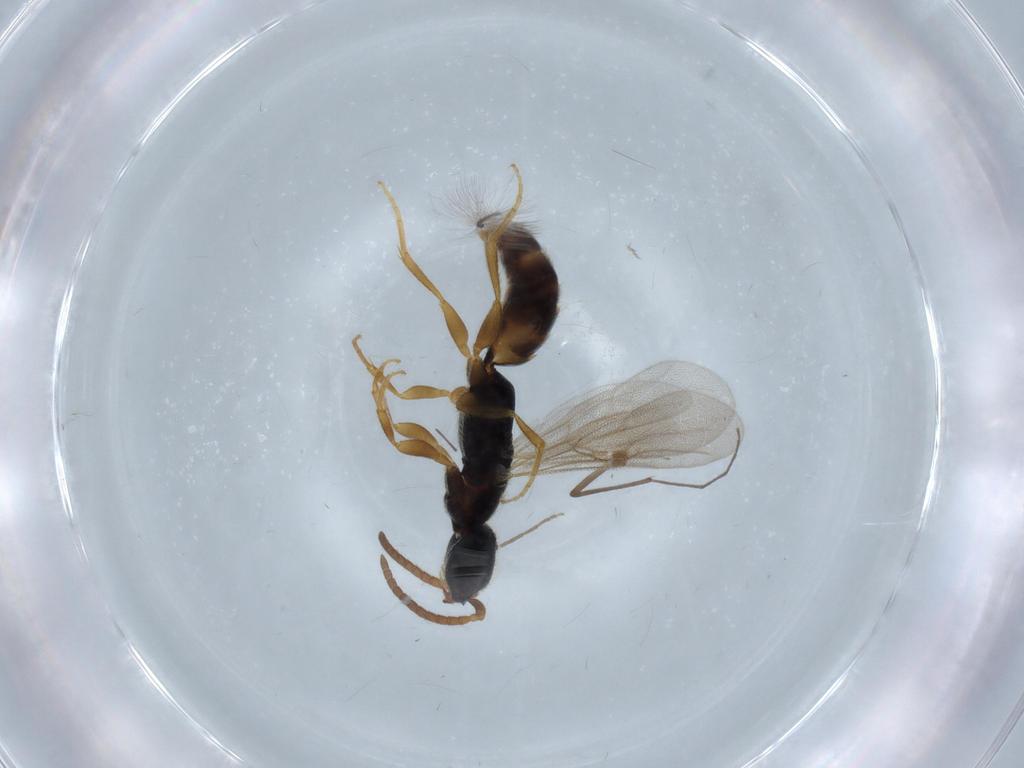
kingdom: Animalia
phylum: Arthropoda
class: Insecta
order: Hymenoptera
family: Bethylidae
